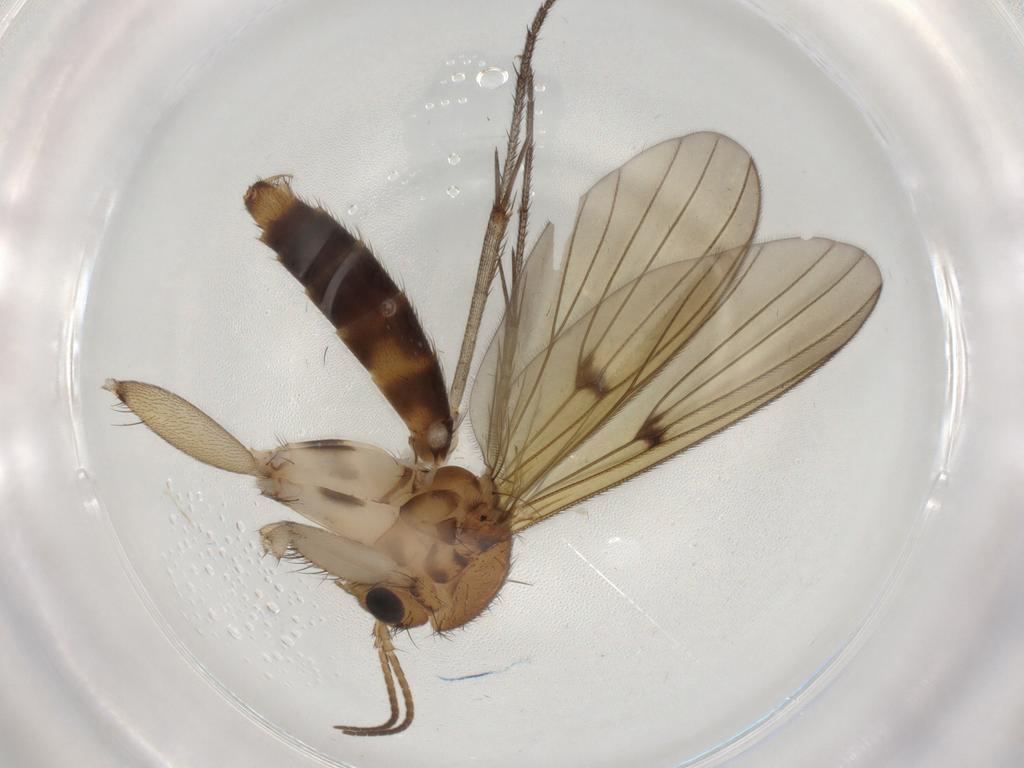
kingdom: Animalia
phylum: Arthropoda
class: Insecta
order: Diptera
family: Mycetophilidae
